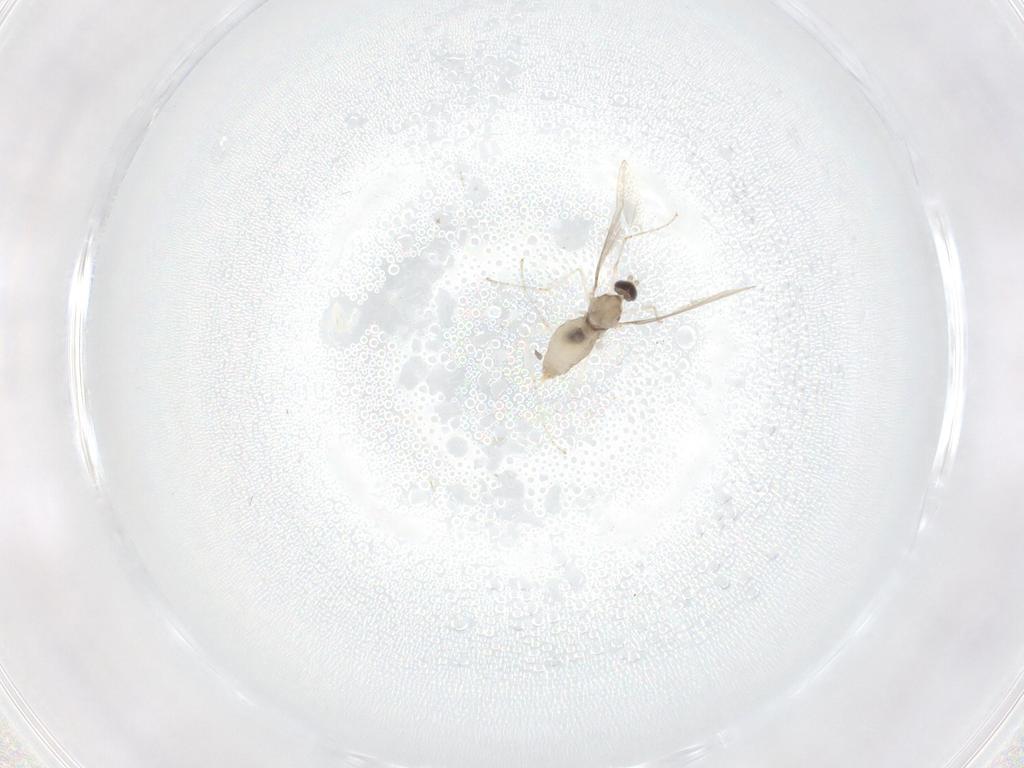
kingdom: Animalia
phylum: Arthropoda
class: Insecta
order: Diptera
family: Cecidomyiidae
